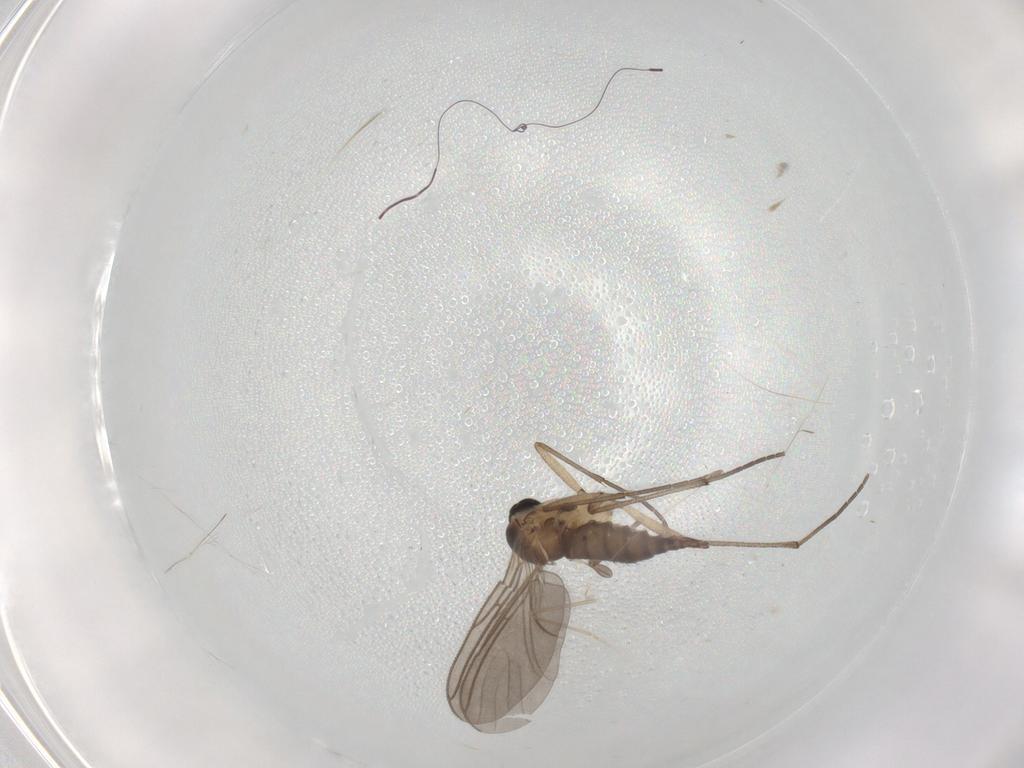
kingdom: Animalia
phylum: Arthropoda
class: Insecta
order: Diptera
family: Sciaridae
